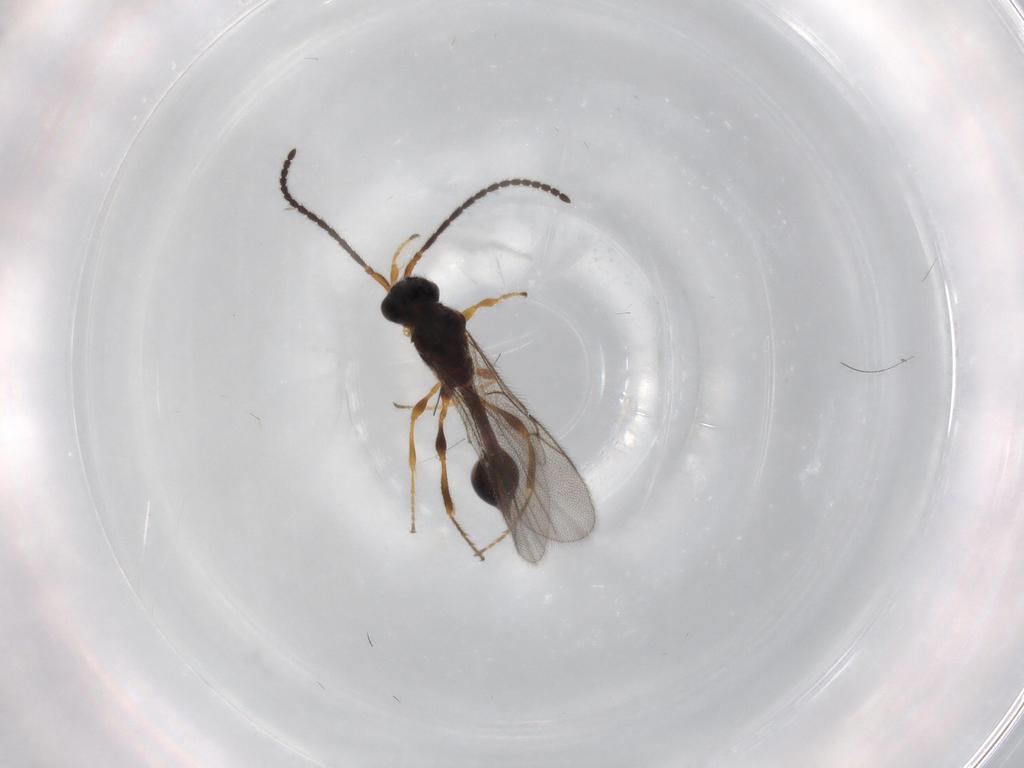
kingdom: Animalia
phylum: Arthropoda
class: Insecta
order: Hymenoptera
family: Diapriidae
